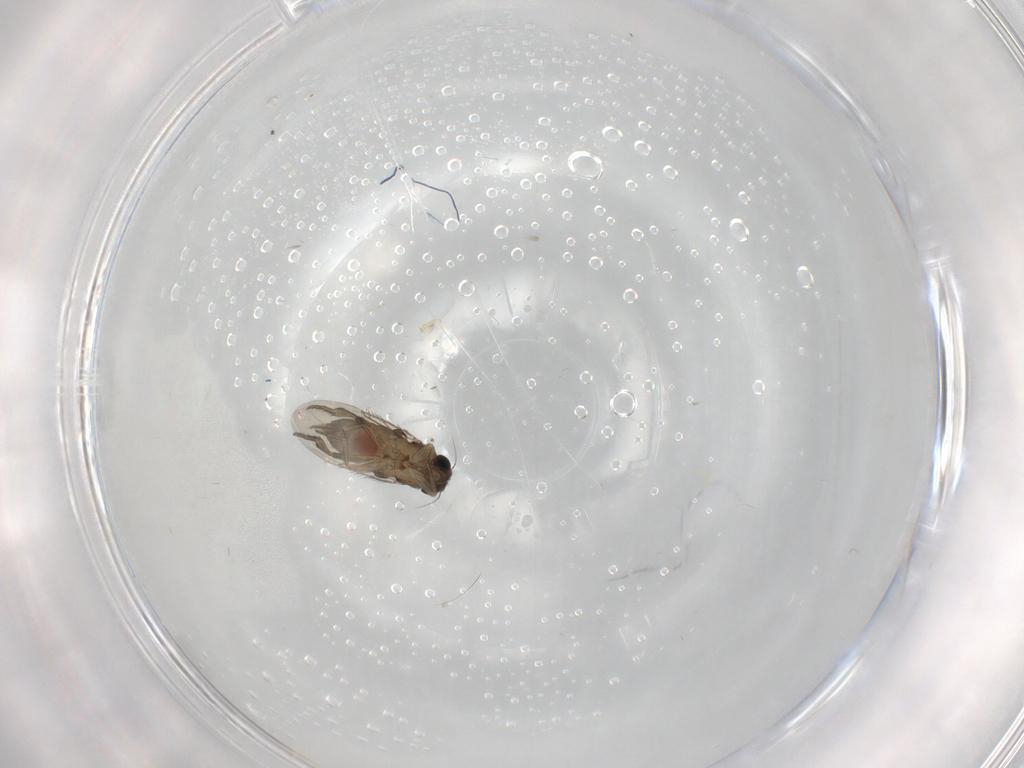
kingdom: Animalia
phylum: Arthropoda
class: Insecta
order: Diptera
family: Phoridae
